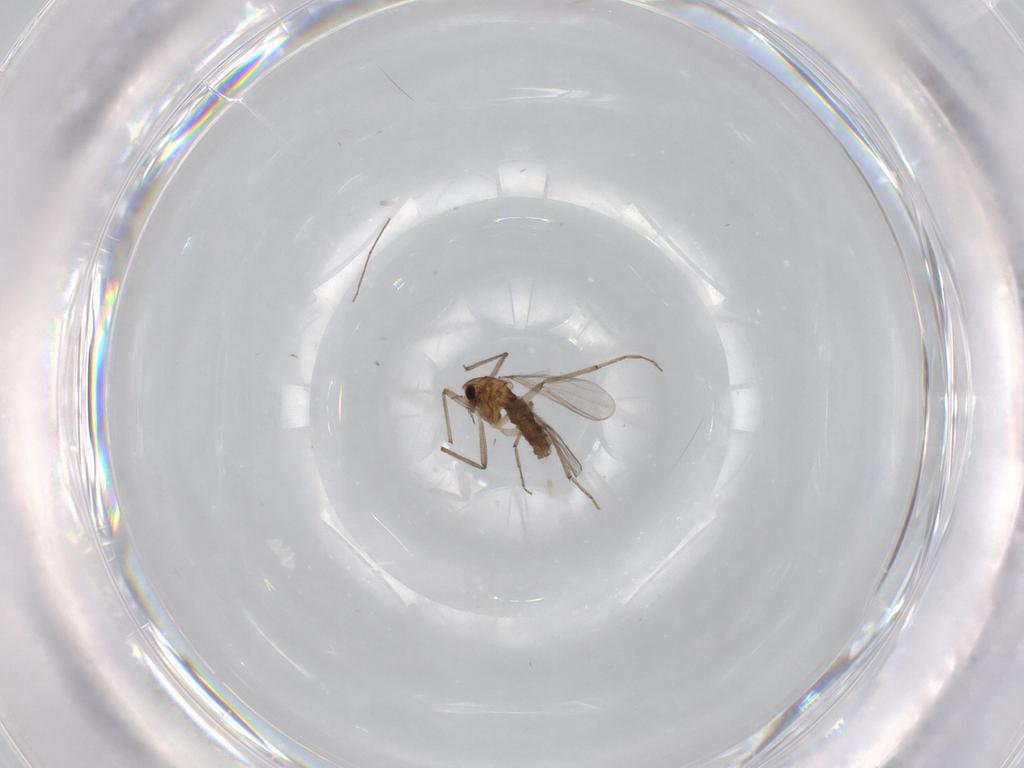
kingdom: Animalia
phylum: Arthropoda
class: Insecta
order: Diptera
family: Chironomidae
